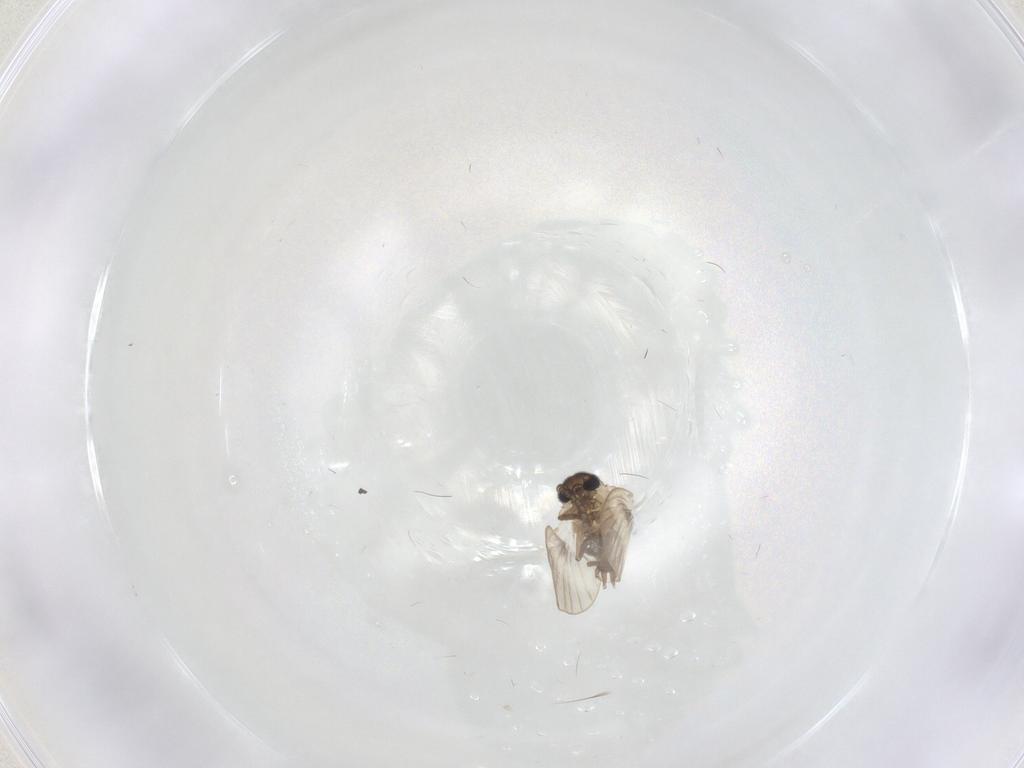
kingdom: Animalia
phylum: Arthropoda
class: Insecta
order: Diptera
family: Psychodidae
